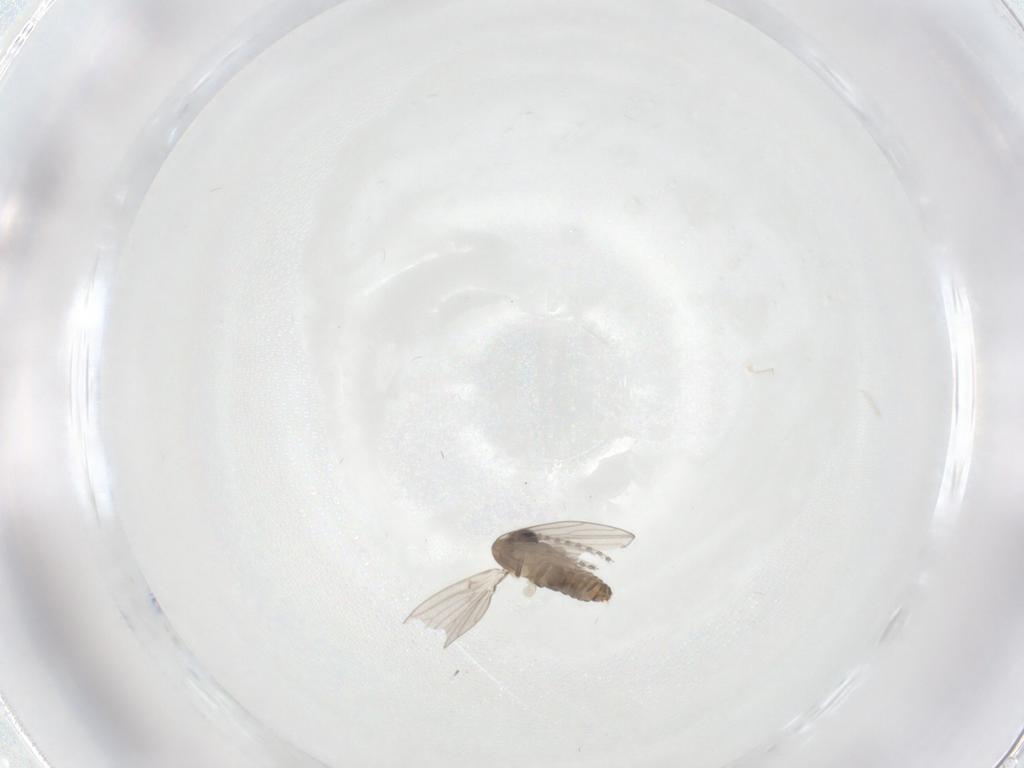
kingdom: Animalia
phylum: Arthropoda
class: Insecta
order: Diptera
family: Psychodidae
